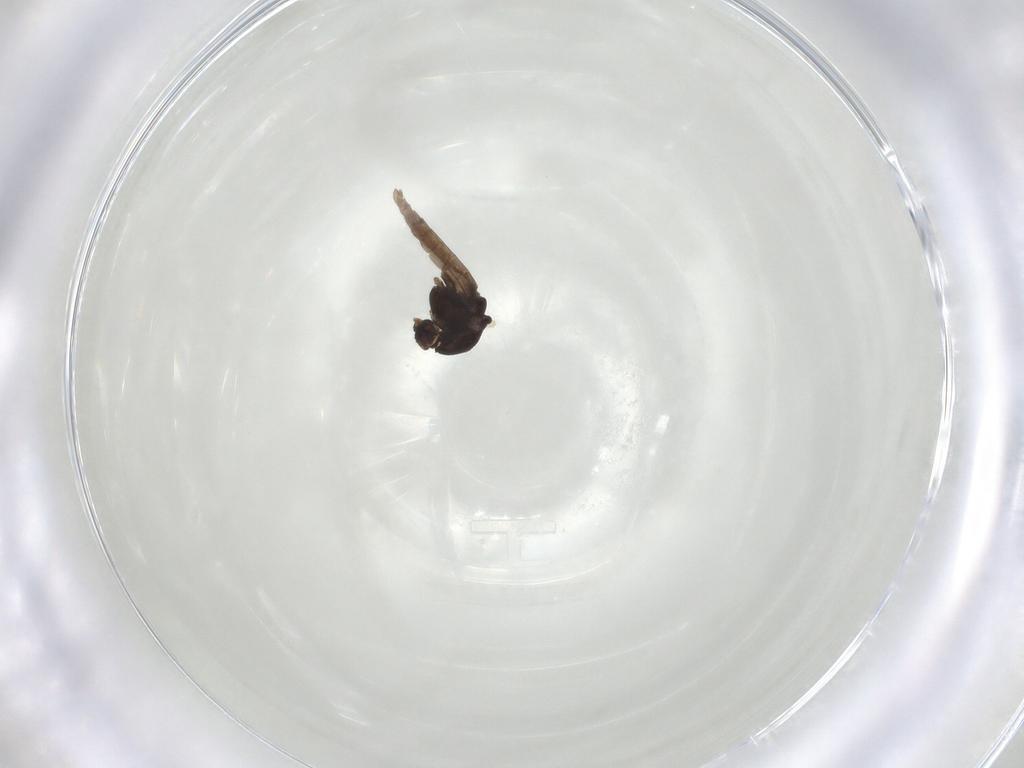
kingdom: Animalia
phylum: Arthropoda
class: Insecta
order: Diptera
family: Chironomidae
